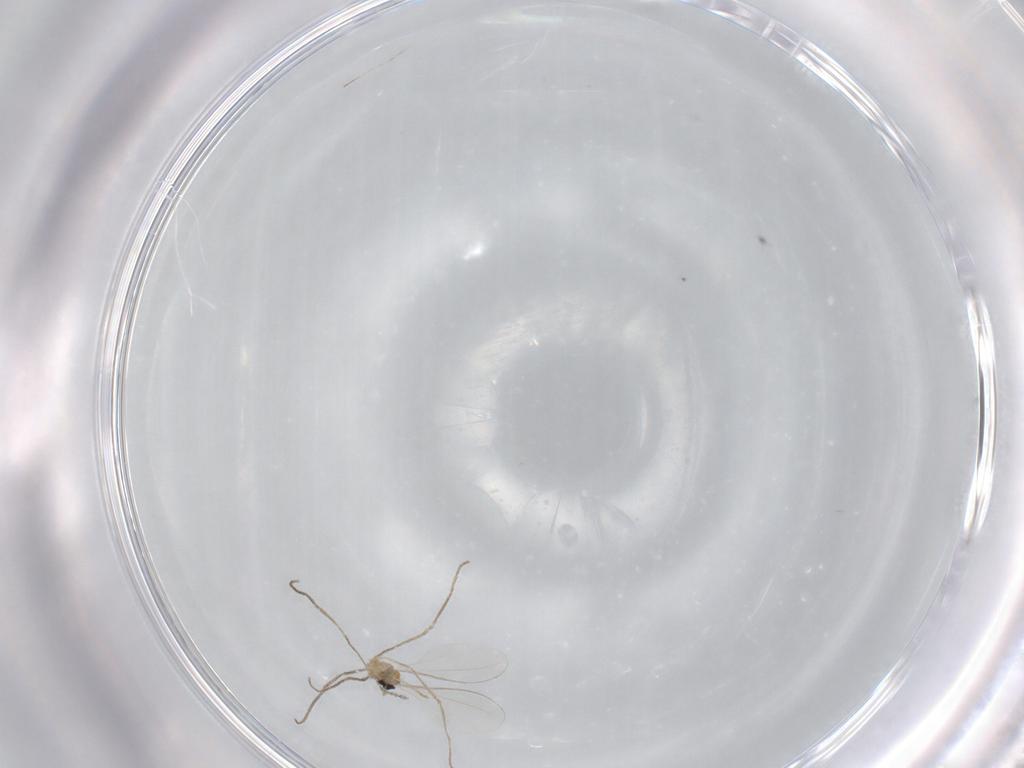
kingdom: Animalia
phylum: Arthropoda
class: Insecta
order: Diptera
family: Cecidomyiidae
